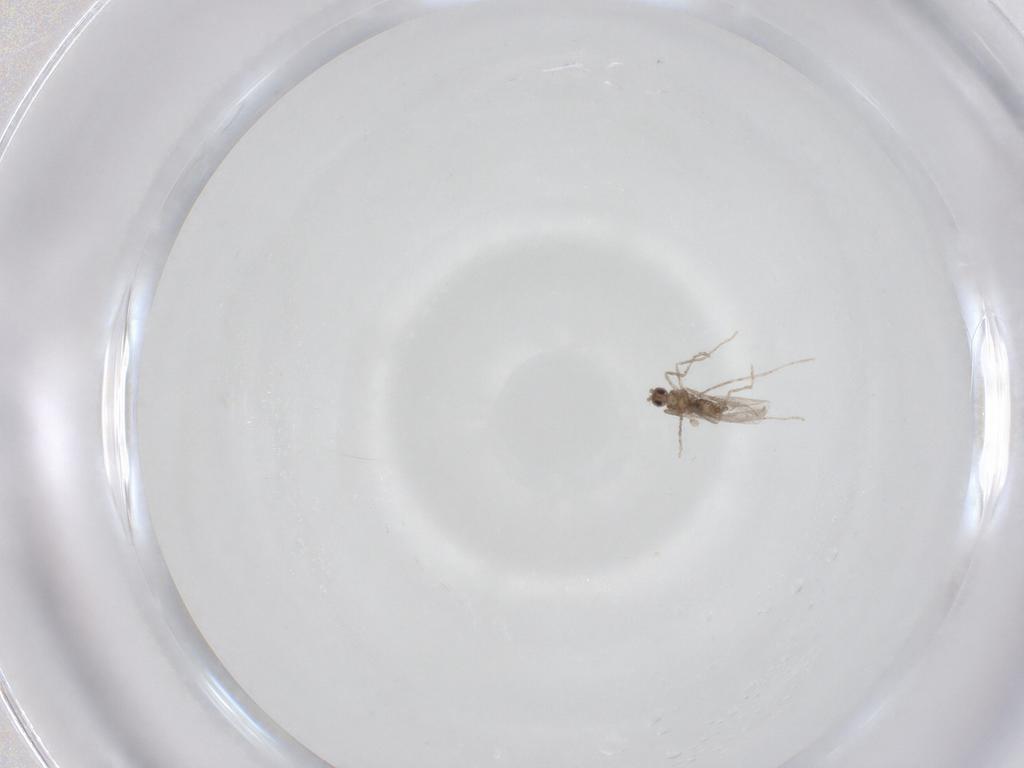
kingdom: Animalia
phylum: Arthropoda
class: Insecta
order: Diptera
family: Cecidomyiidae
